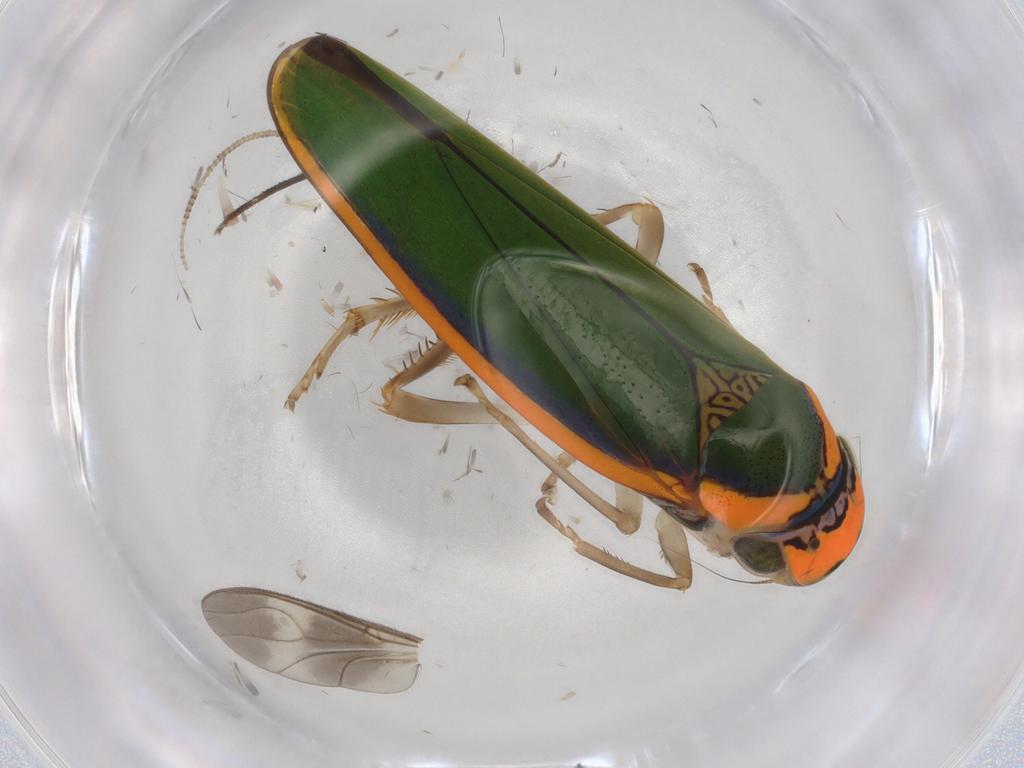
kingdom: Animalia
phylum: Arthropoda
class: Insecta
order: Hemiptera
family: Cicadellidae
